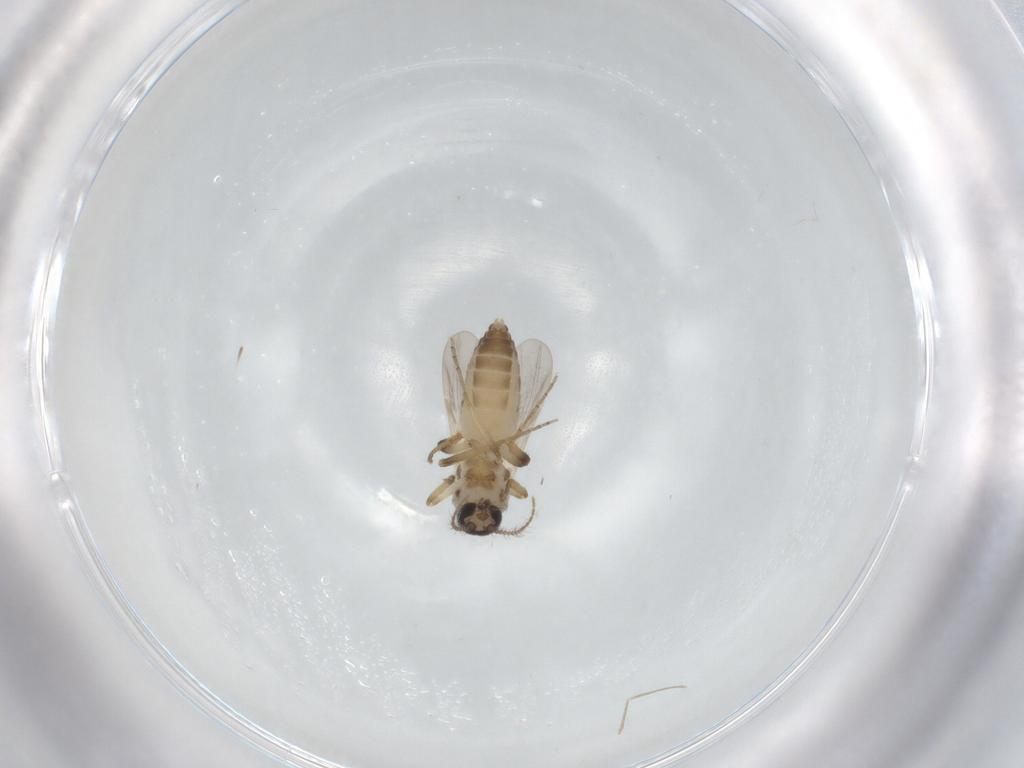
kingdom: Animalia
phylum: Arthropoda
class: Insecta
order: Diptera
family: Ceratopogonidae
